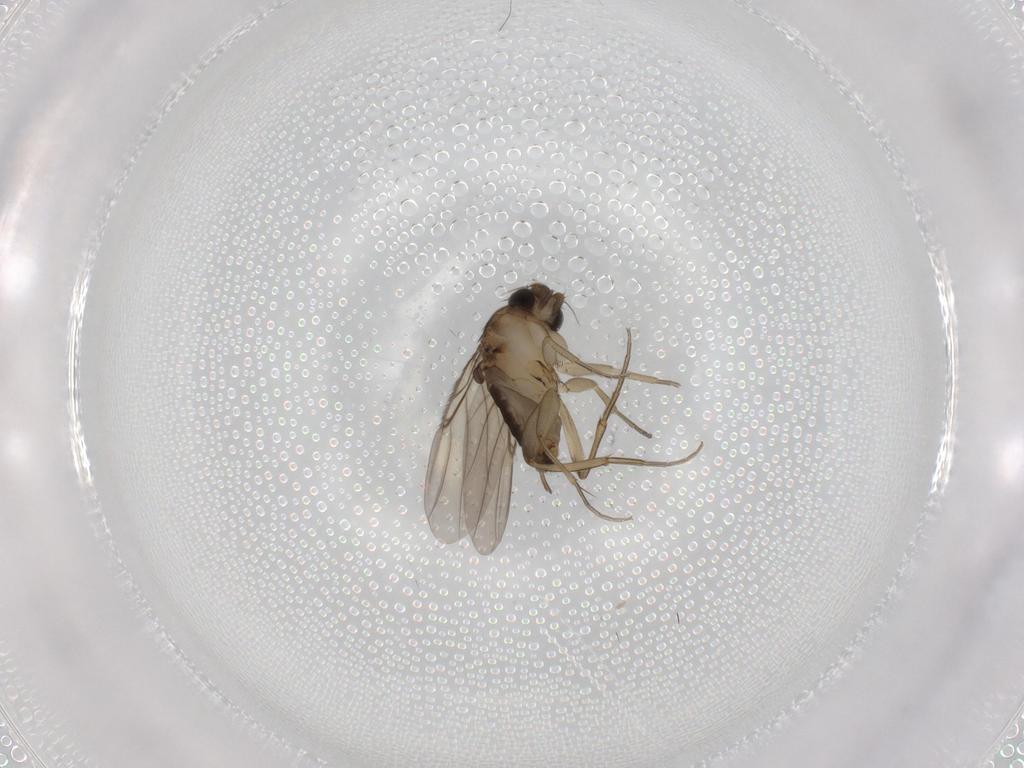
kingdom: Animalia
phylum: Arthropoda
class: Insecta
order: Diptera
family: Phoridae
